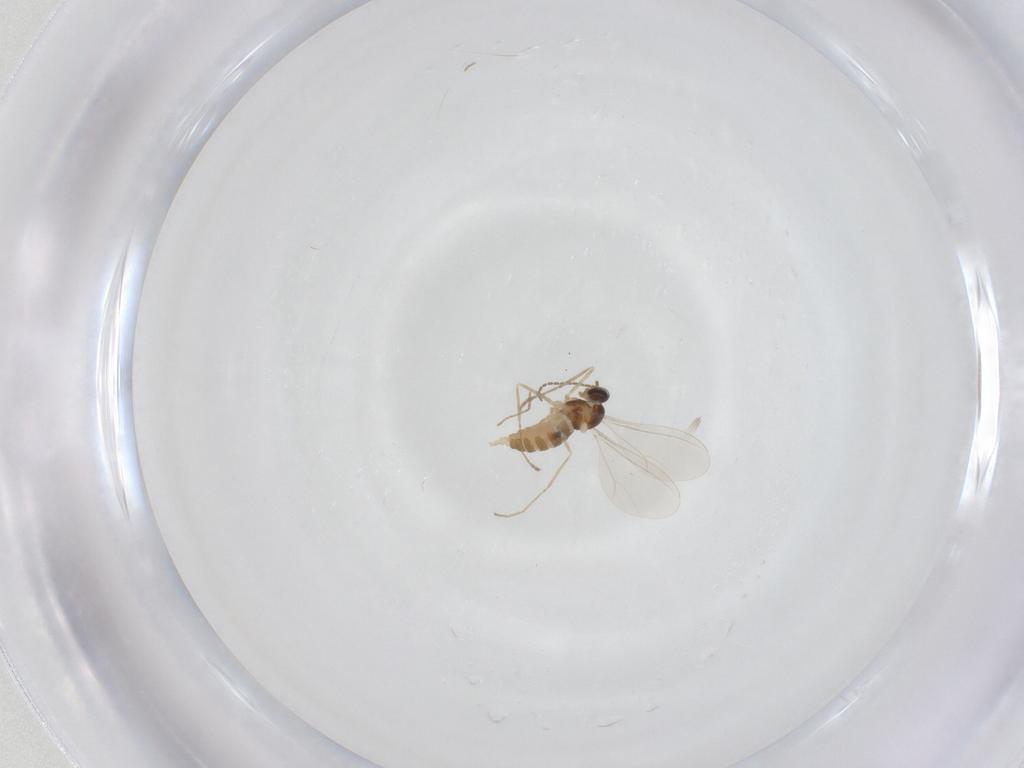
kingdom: Animalia
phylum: Arthropoda
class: Insecta
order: Diptera
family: Cecidomyiidae
